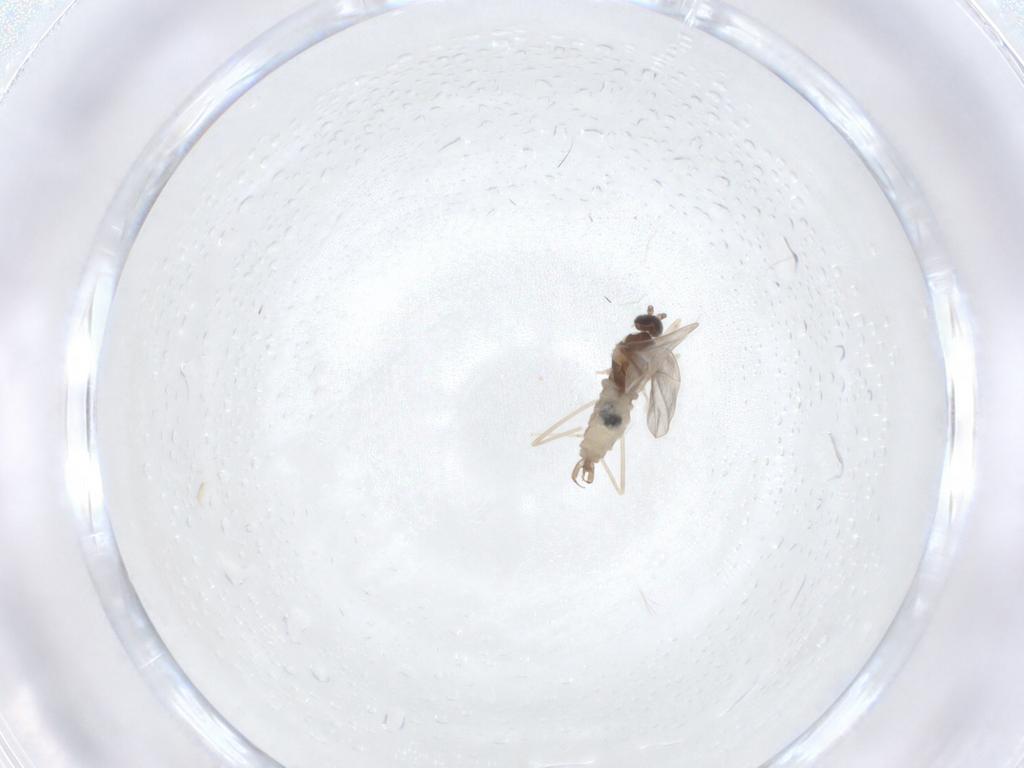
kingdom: Animalia
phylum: Arthropoda
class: Insecta
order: Diptera
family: Cecidomyiidae
